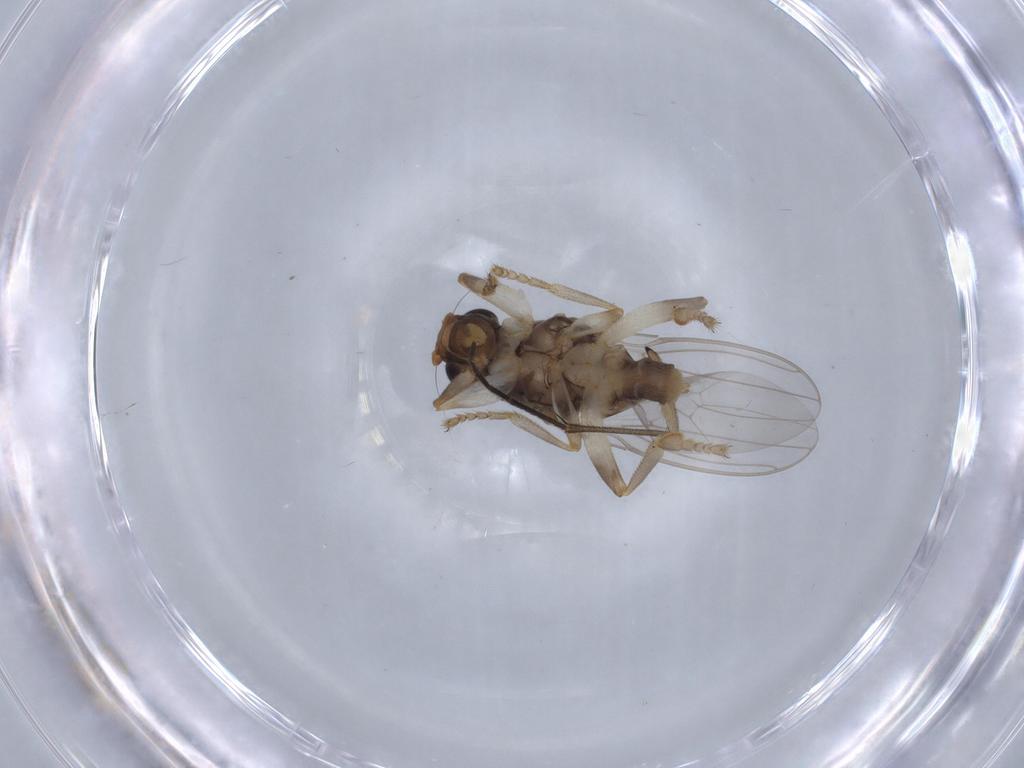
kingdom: Animalia
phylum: Arthropoda
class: Insecta
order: Diptera
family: Sphaeroceridae
